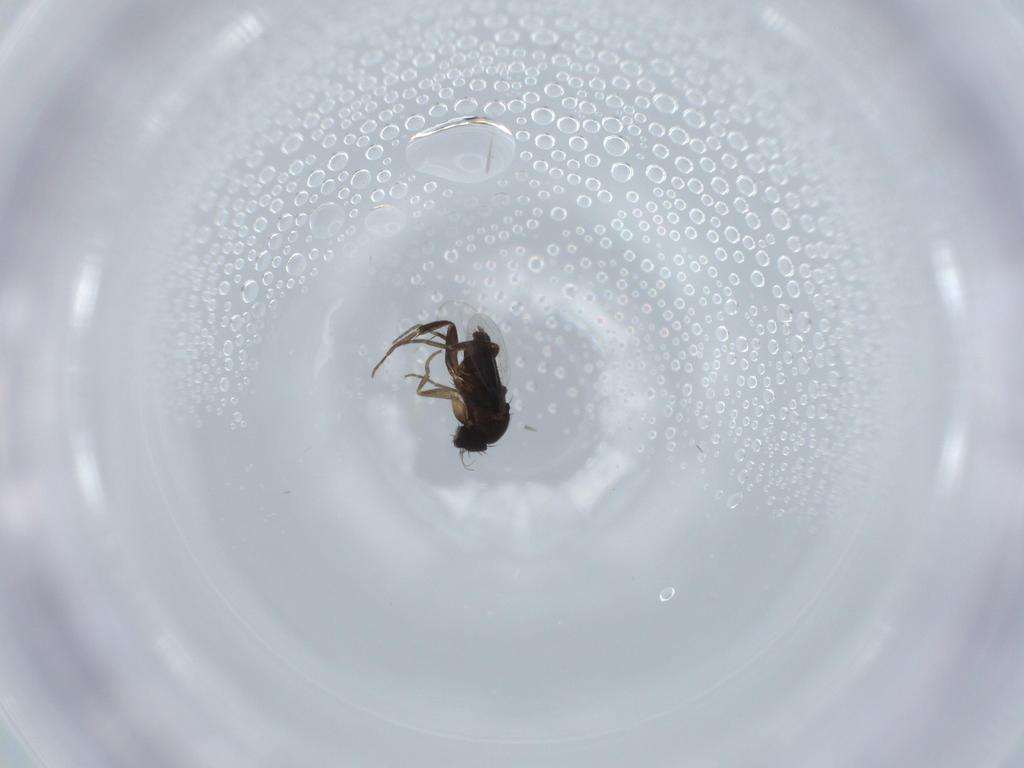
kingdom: Animalia
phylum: Arthropoda
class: Insecta
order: Diptera
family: Phoridae
